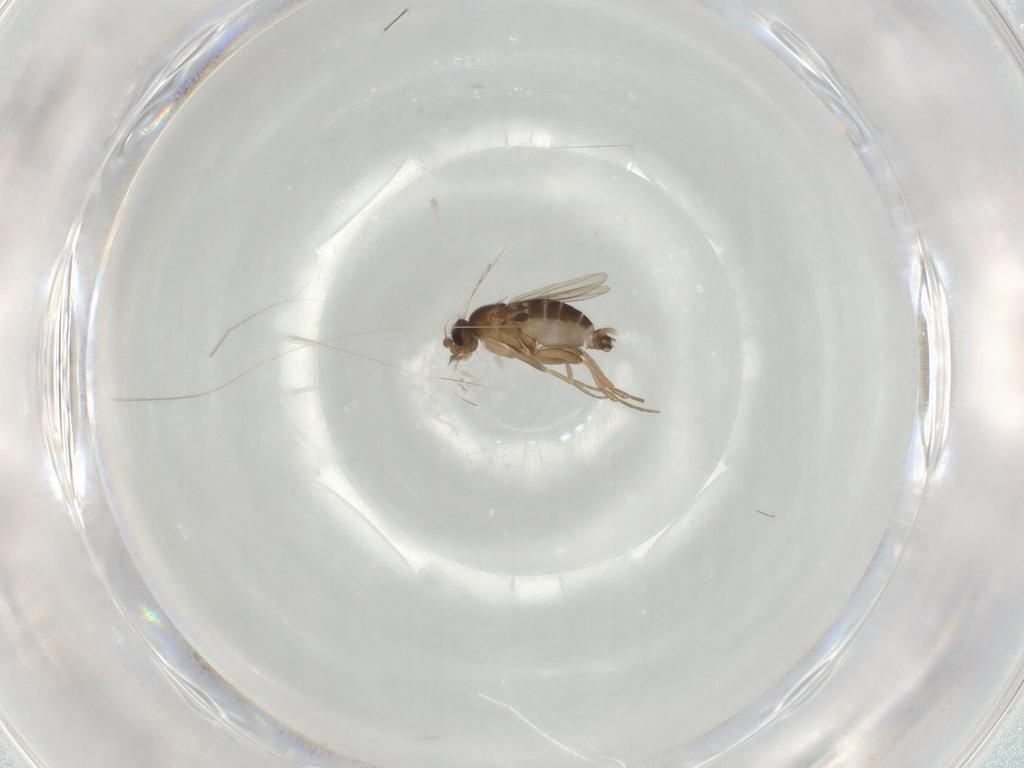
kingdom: Animalia
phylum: Arthropoda
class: Insecta
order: Diptera
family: Phoridae
